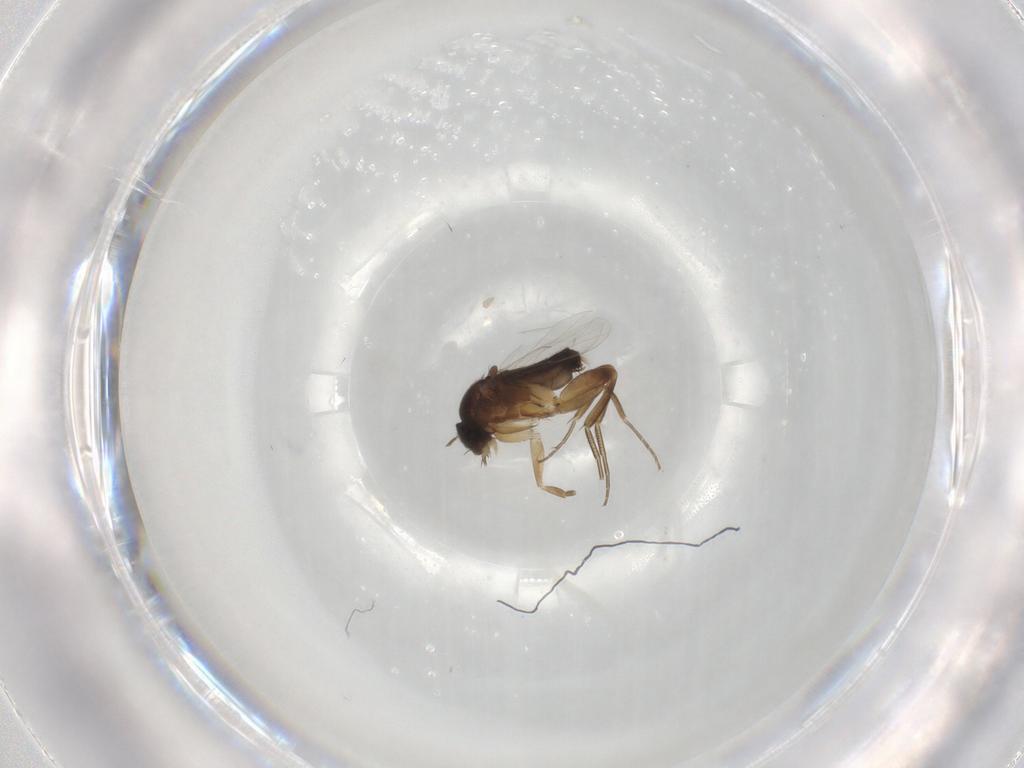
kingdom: Animalia
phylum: Arthropoda
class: Insecta
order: Diptera
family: Phoridae
